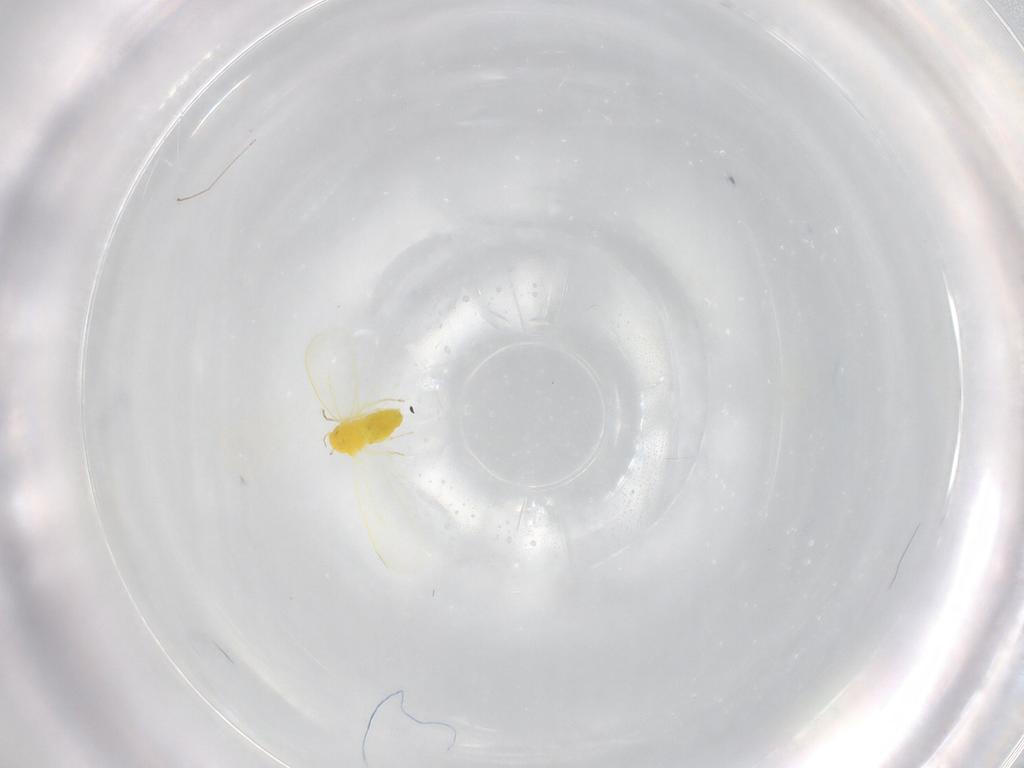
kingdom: Animalia
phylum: Arthropoda
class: Insecta
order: Hemiptera
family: Aleyrodidae
